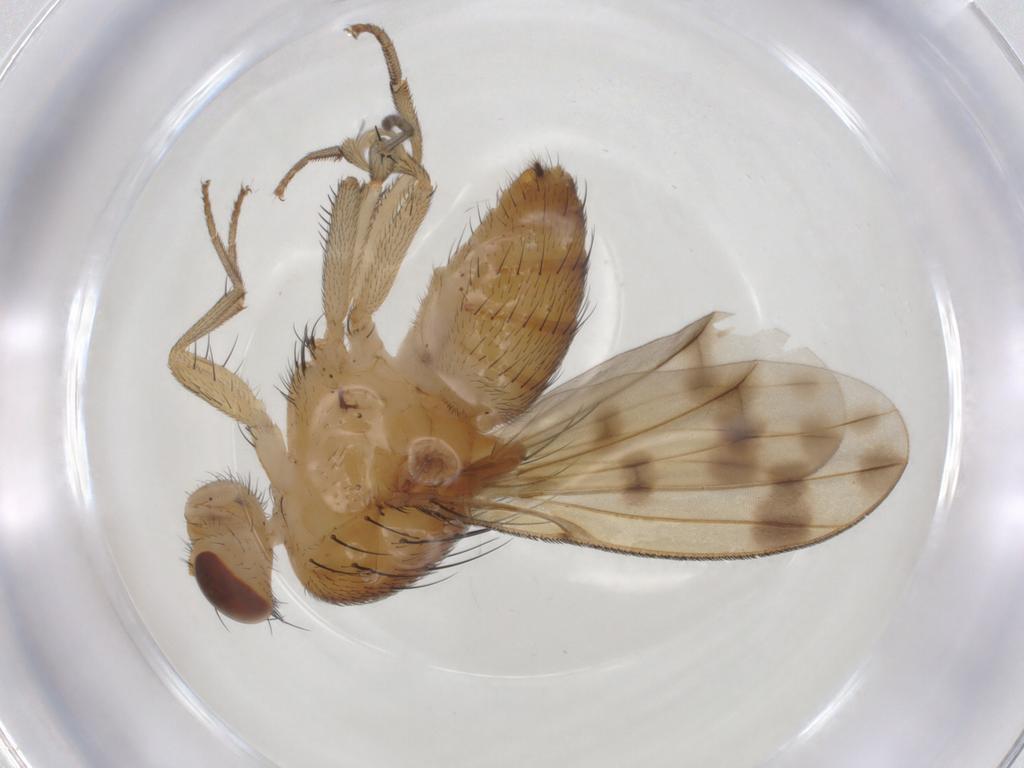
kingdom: Animalia
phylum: Arthropoda
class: Insecta
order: Diptera
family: Lauxaniidae
